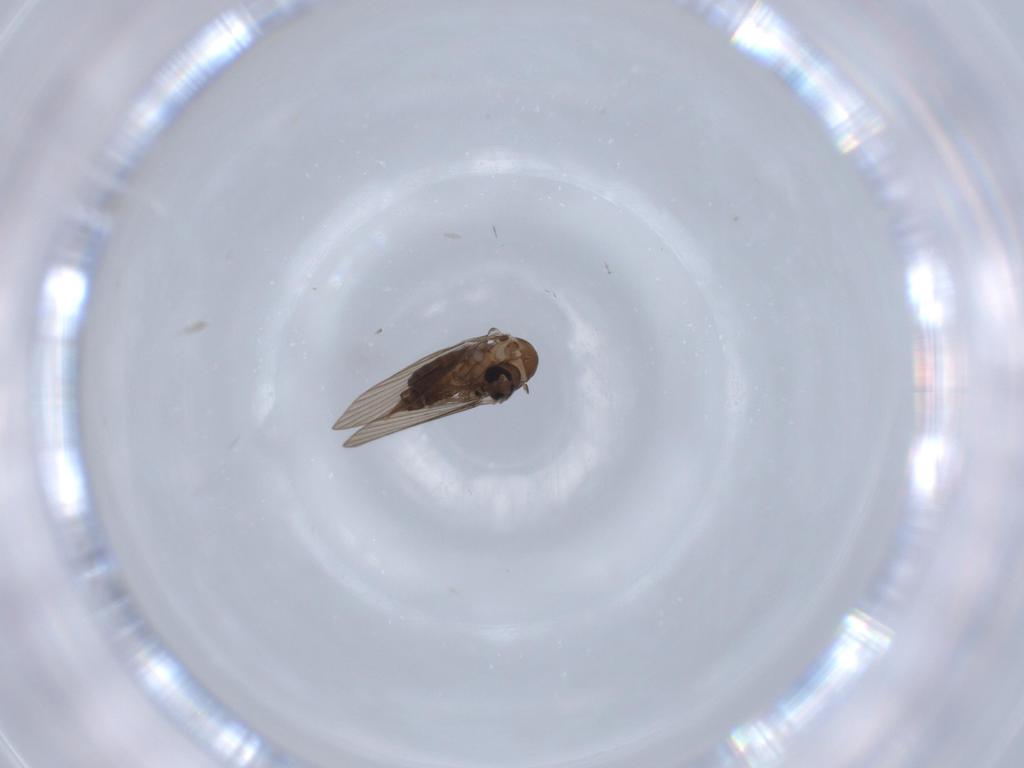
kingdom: Animalia
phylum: Arthropoda
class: Insecta
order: Diptera
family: Psychodidae
